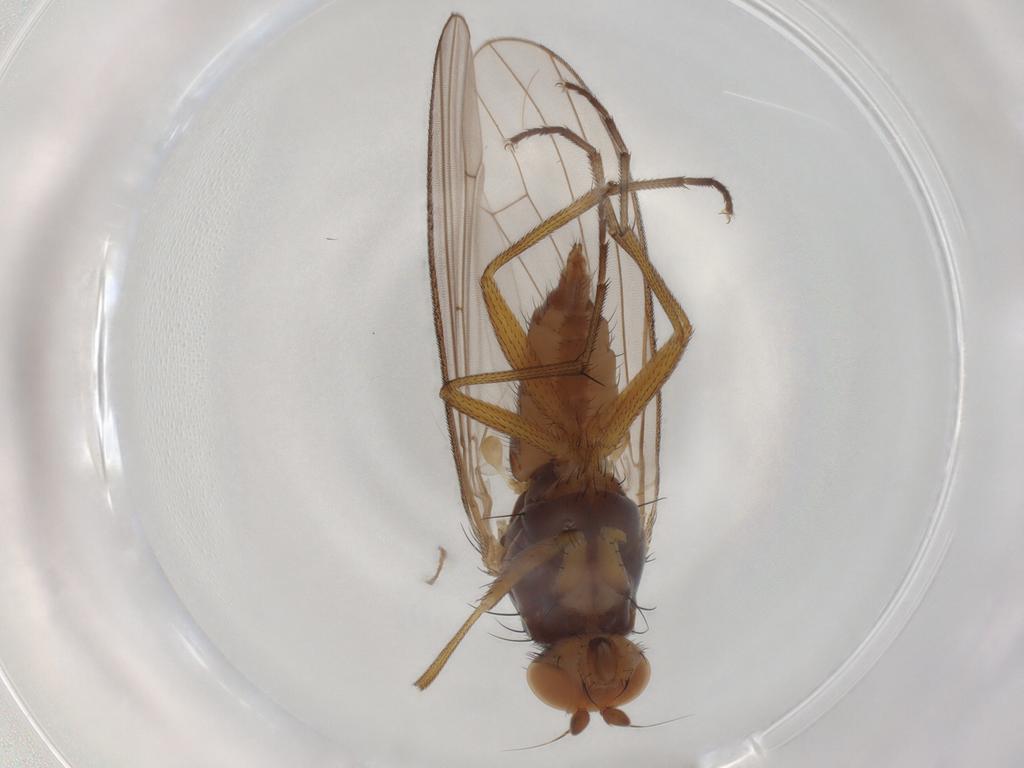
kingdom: Animalia
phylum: Arthropoda
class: Insecta
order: Diptera
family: Heleomyzidae
